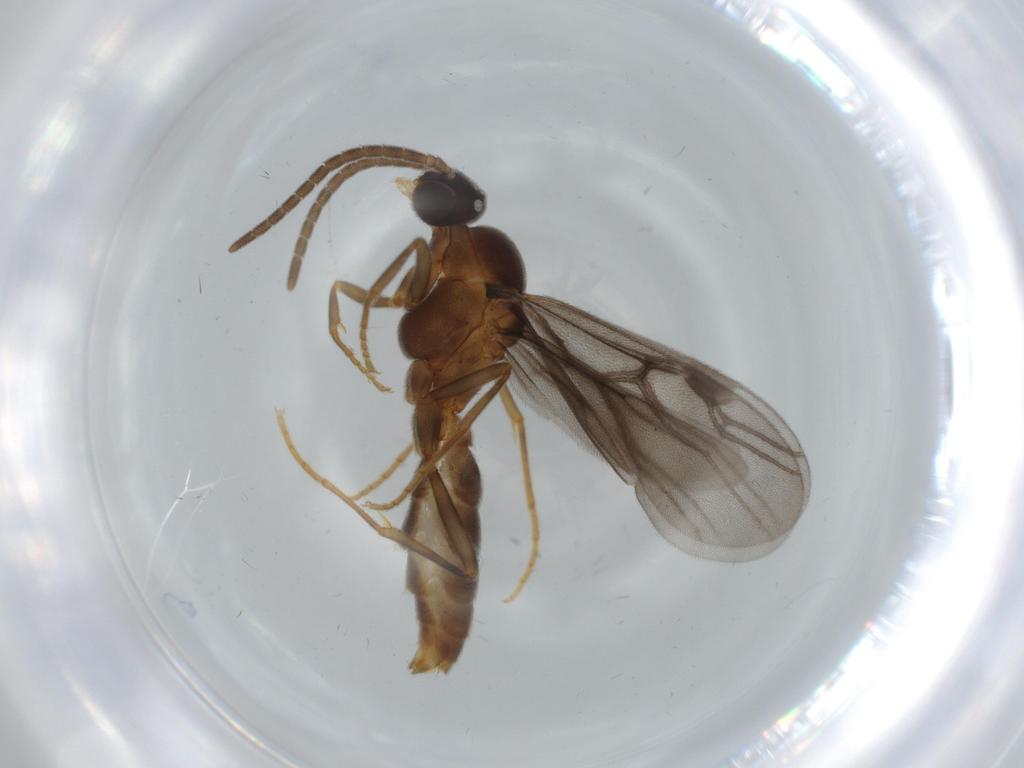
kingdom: Animalia
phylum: Arthropoda
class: Insecta
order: Hymenoptera
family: Formicidae
